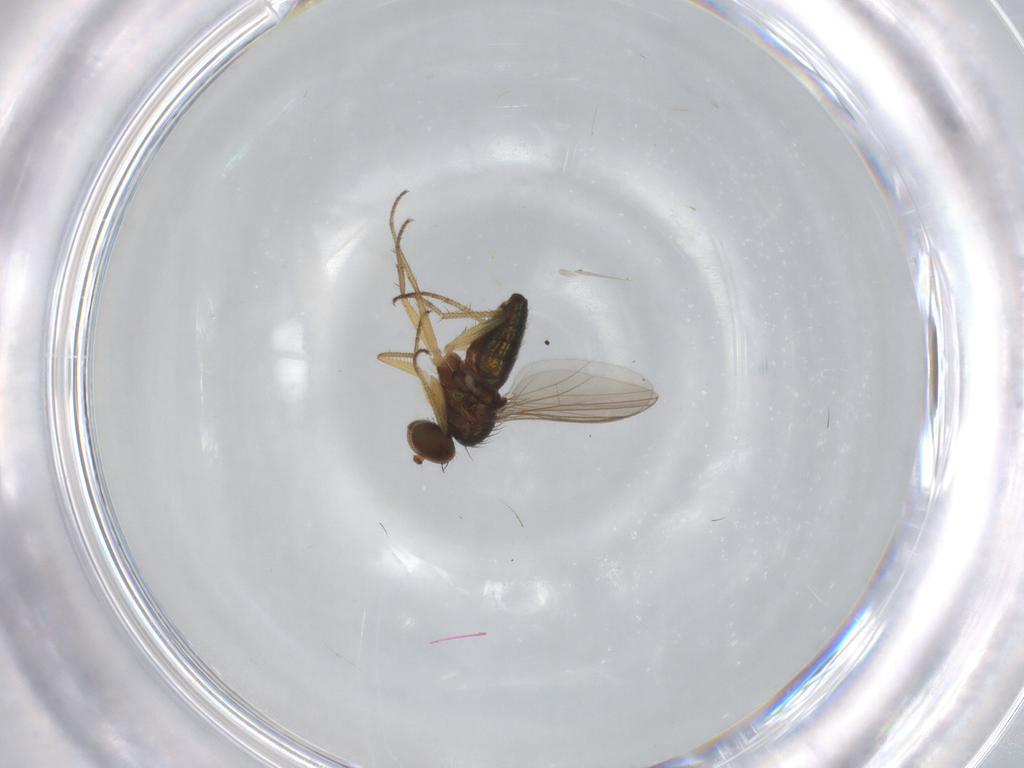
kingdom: Animalia
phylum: Arthropoda
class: Insecta
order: Diptera
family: Dolichopodidae
